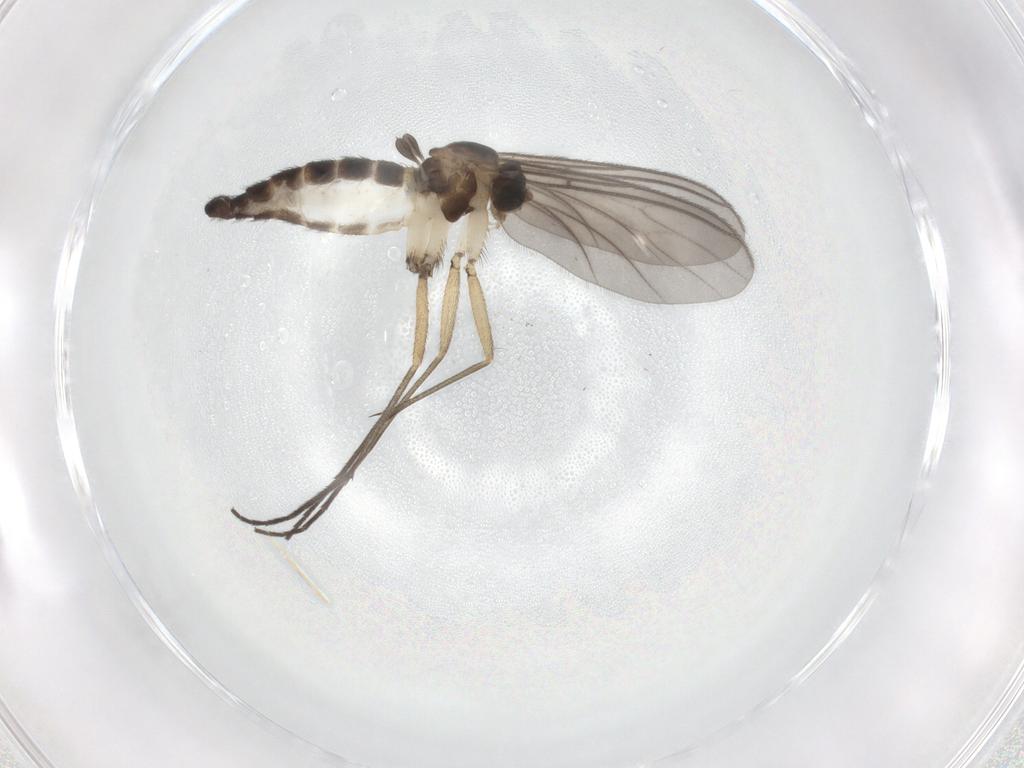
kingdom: Animalia
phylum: Arthropoda
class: Insecta
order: Diptera
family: Sciaridae
